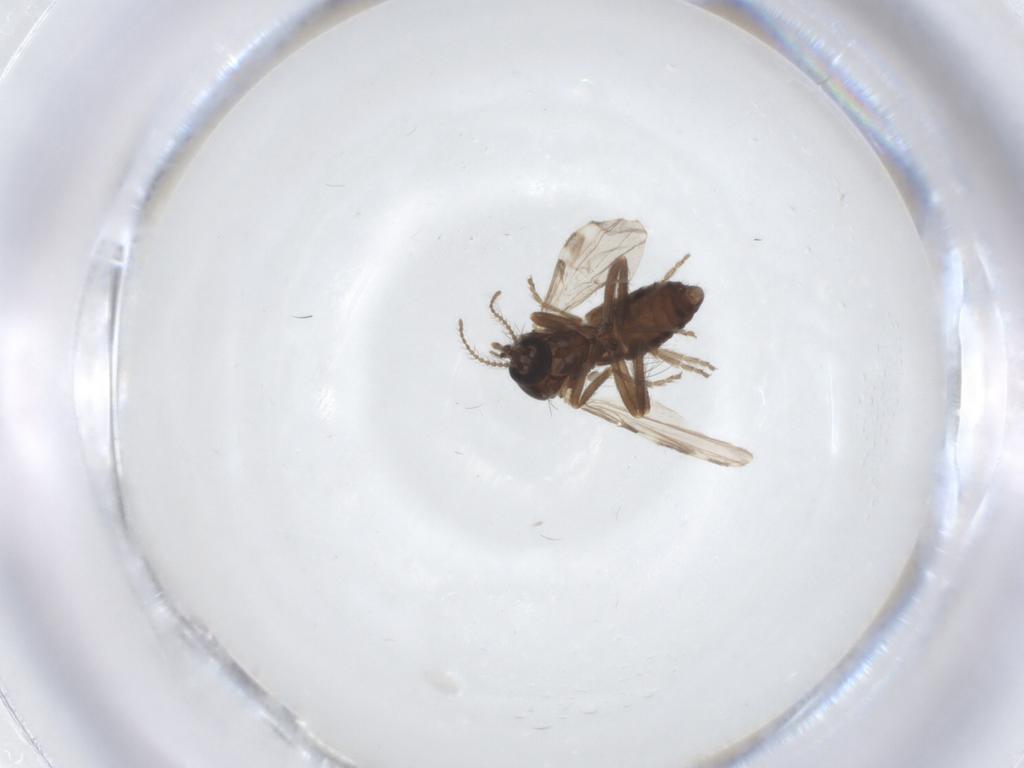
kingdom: Animalia
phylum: Arthropoda
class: Insecta
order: Diptera
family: Ceratopogonidae
